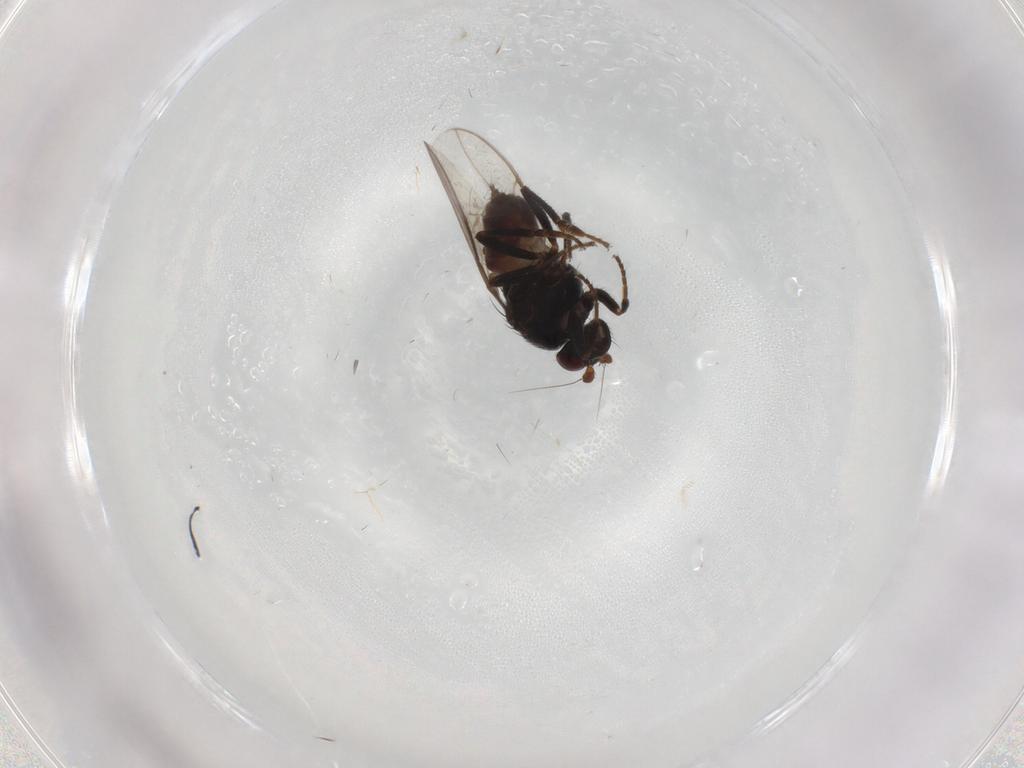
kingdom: Animalia
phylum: Arthropoda
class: Insecta
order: Diptera
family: Sphaeroceridae
